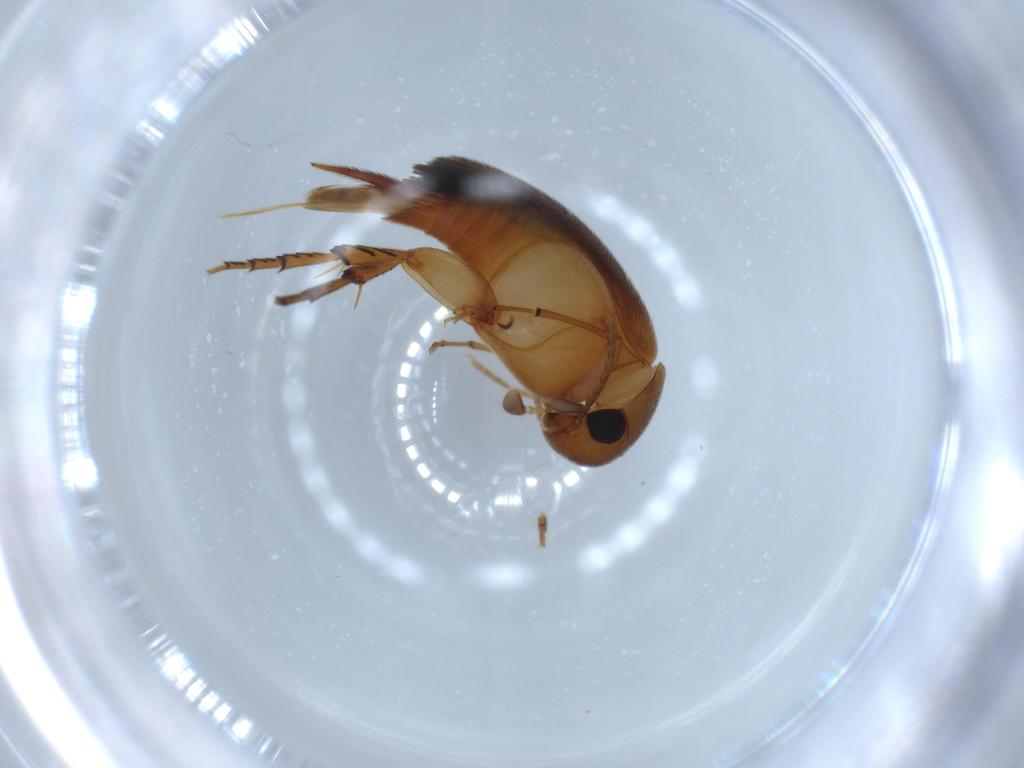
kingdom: Animalia
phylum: Arthropoda
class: Insecta
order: Coleoptera
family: Mordellidae
